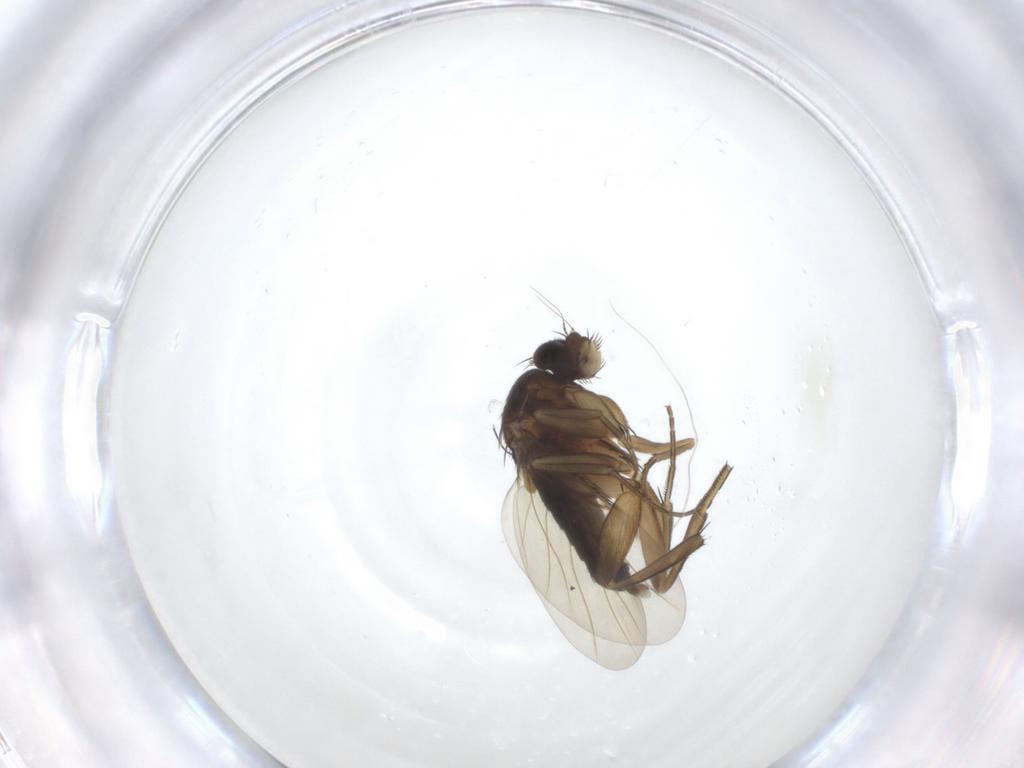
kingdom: Animalia
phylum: Arthropoda
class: Insecta
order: Diptera
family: Phoridae
